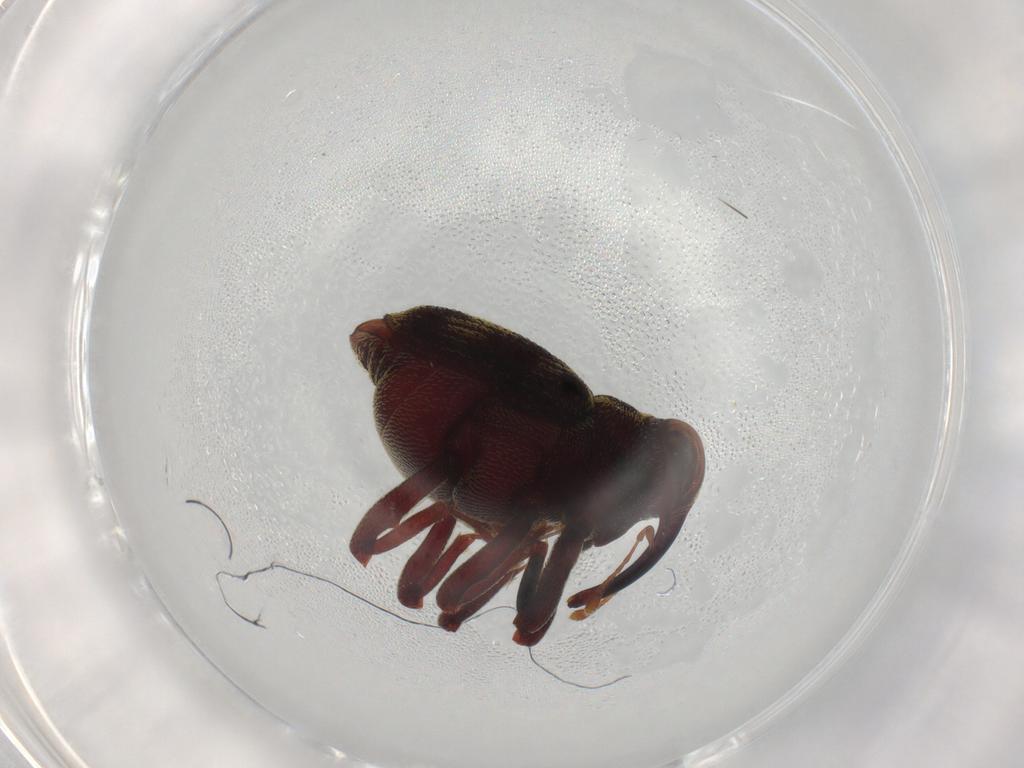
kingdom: Animalia
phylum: Arthropoda
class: Insecta
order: Coleoptera
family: Curculionidae
